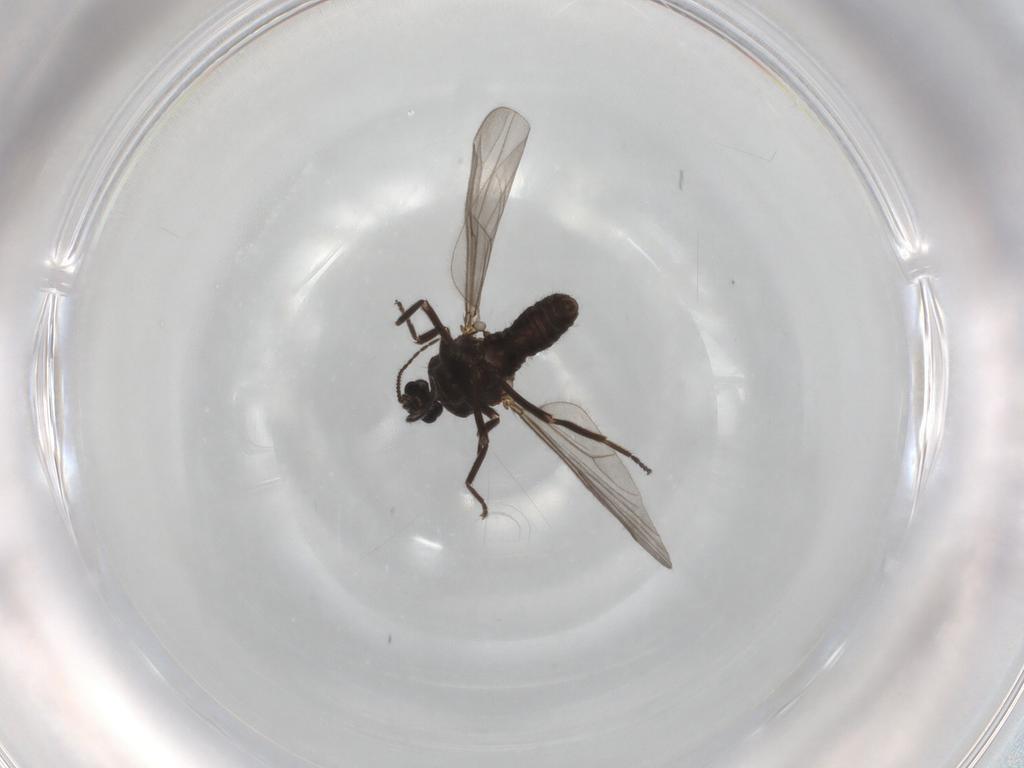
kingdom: Animalia
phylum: Arthropoda
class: Insecta
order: Diptera
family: Ceratopogonidae
